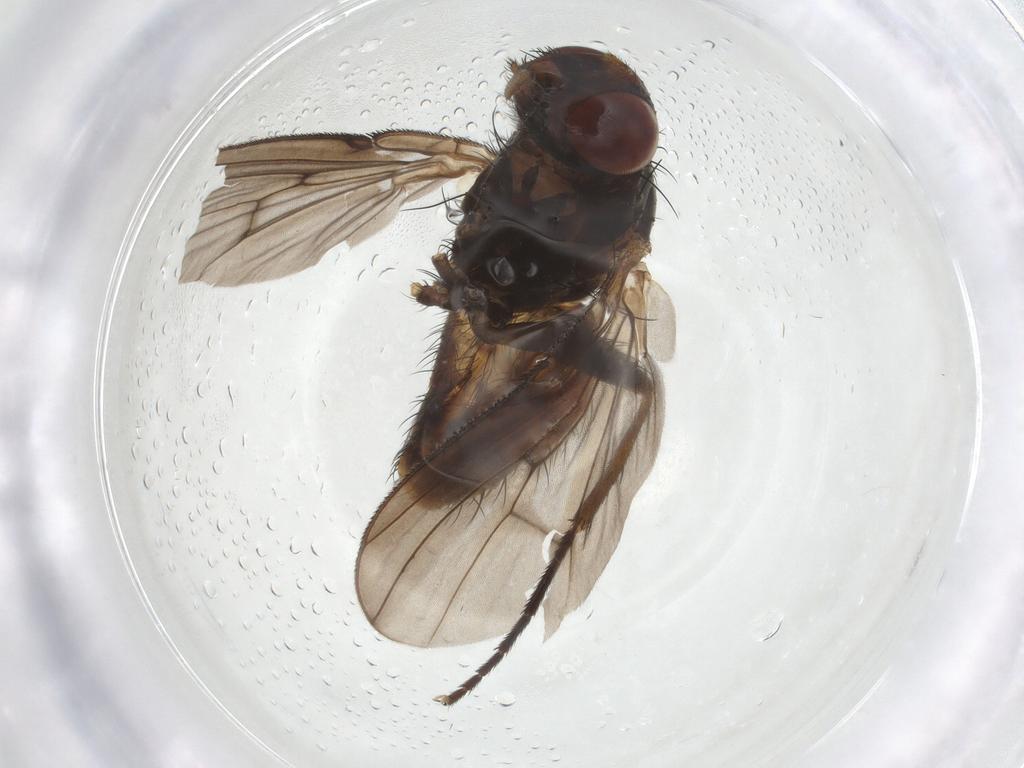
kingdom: Animalia
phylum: Arthropoda
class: Insecta
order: Diptera
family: Muscidae
